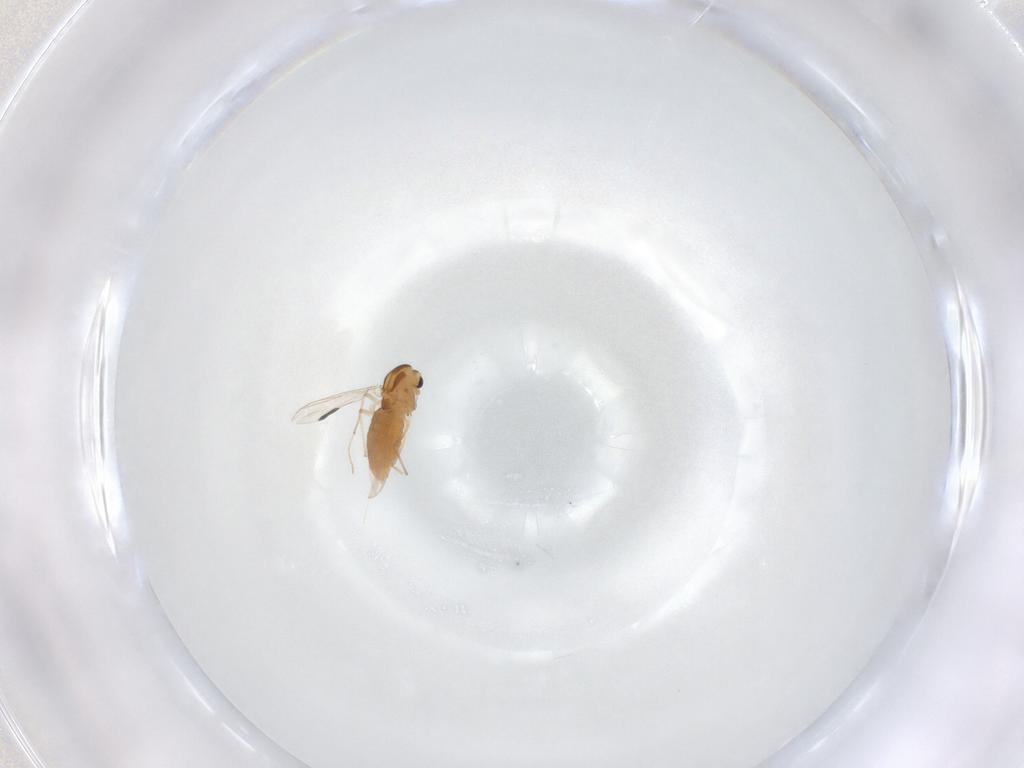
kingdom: Animalia
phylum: Arthropoda
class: Insecta
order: Diptera
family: Chironomidae
